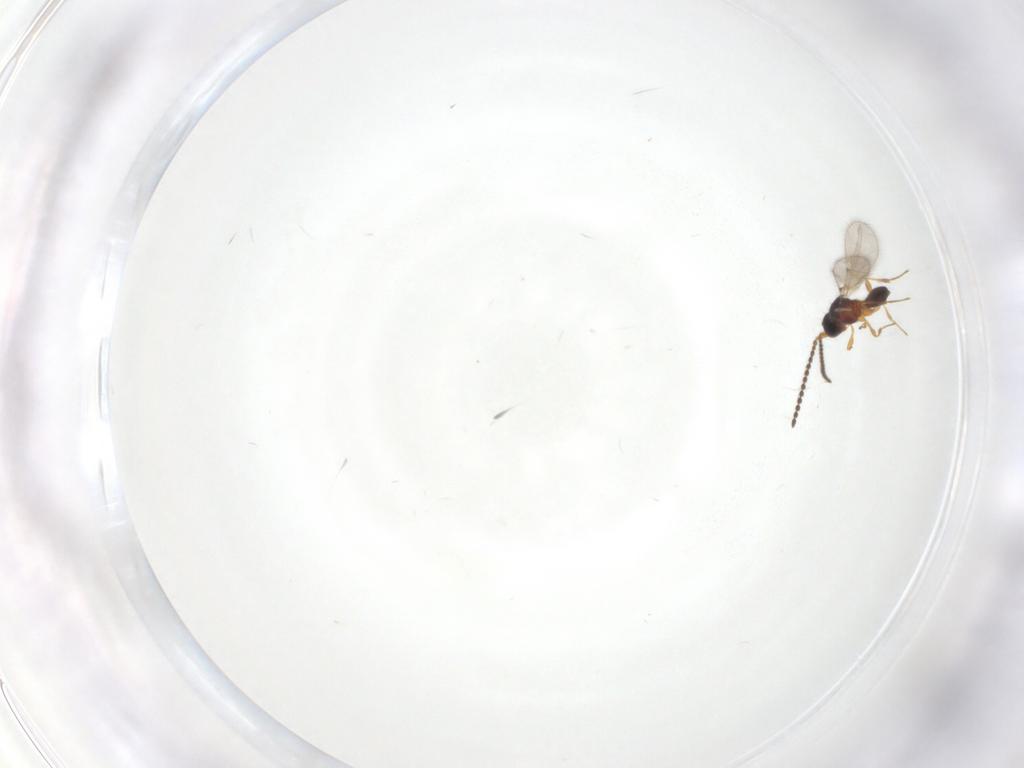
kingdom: Animalia
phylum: Arthropoda
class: Insecta
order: Hymenoptera
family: Diapriidae
